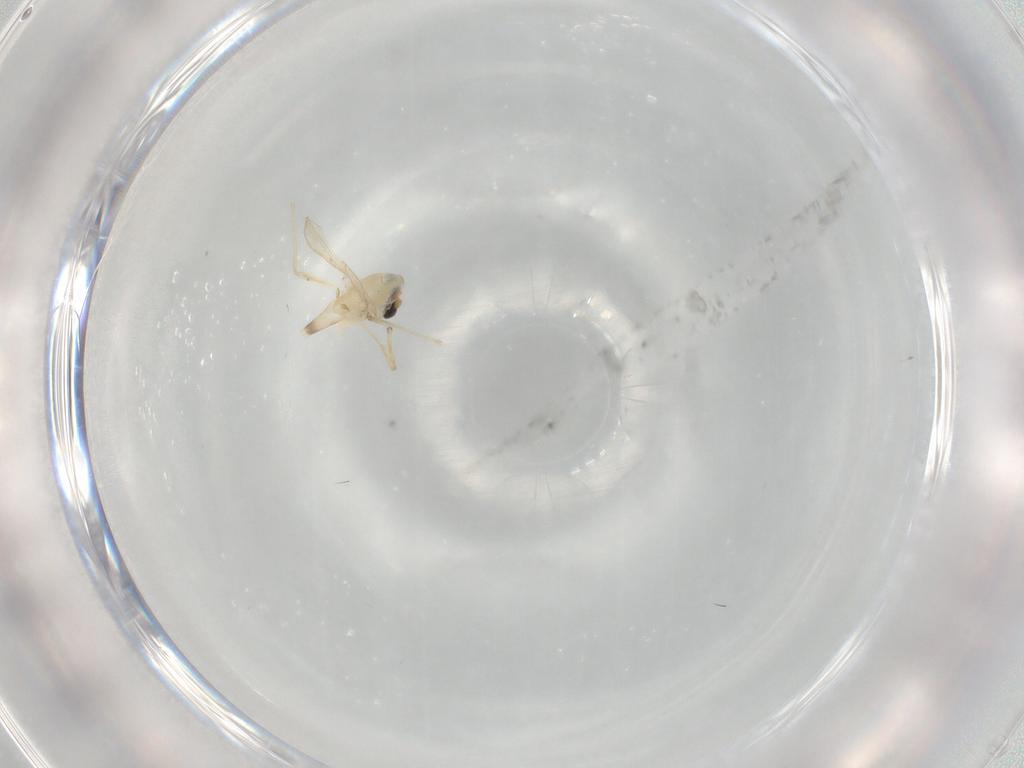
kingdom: Animalia
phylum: Arthropoda
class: Insecta
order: Diptera
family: Chironomidae
